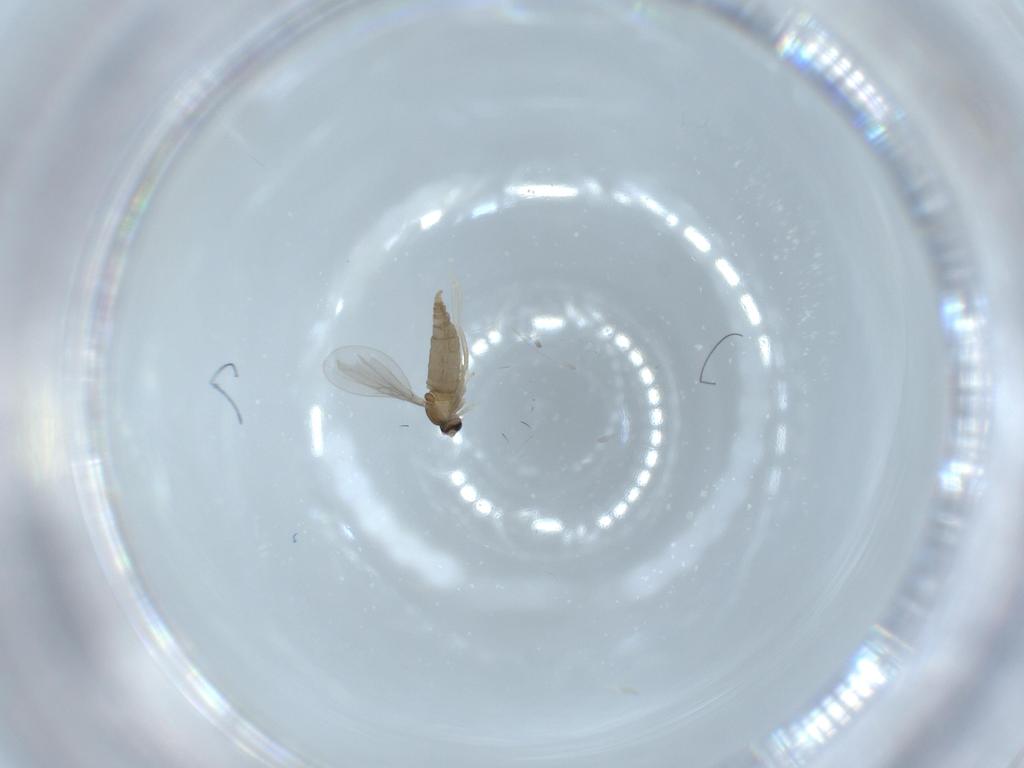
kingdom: Animalia
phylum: Arthropoda
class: Insecta
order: Diptera
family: Cecidomyiidae
